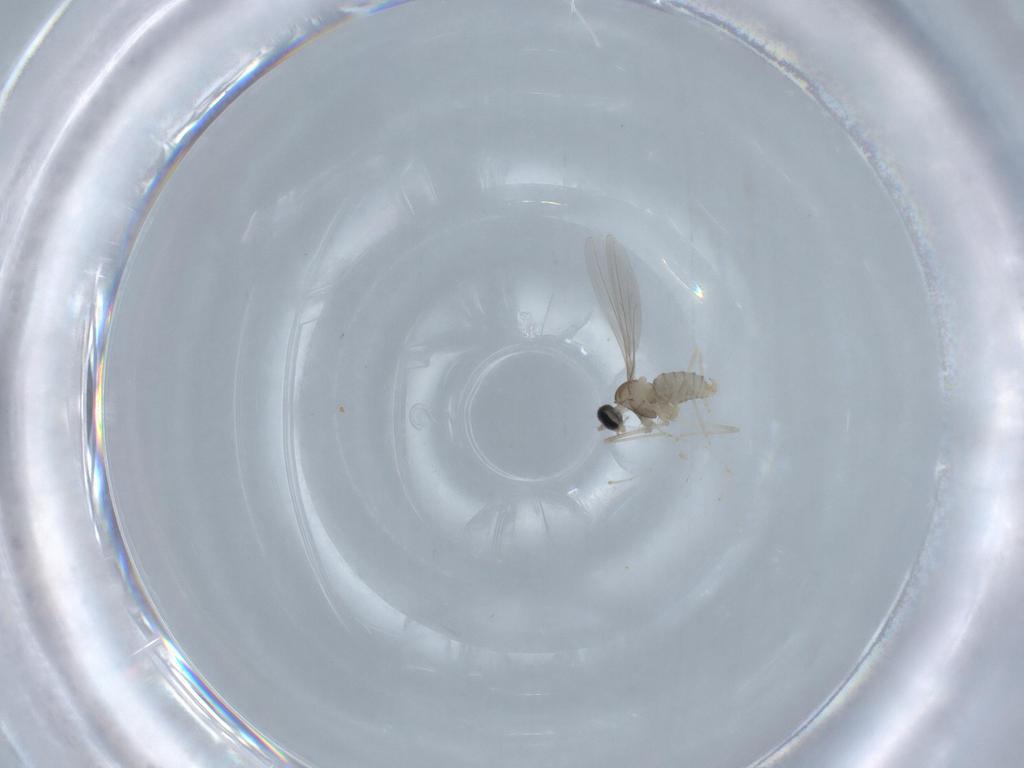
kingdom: Animalia
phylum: Arthropoda
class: Insecta
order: Diptera
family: Cecidomyiidae
